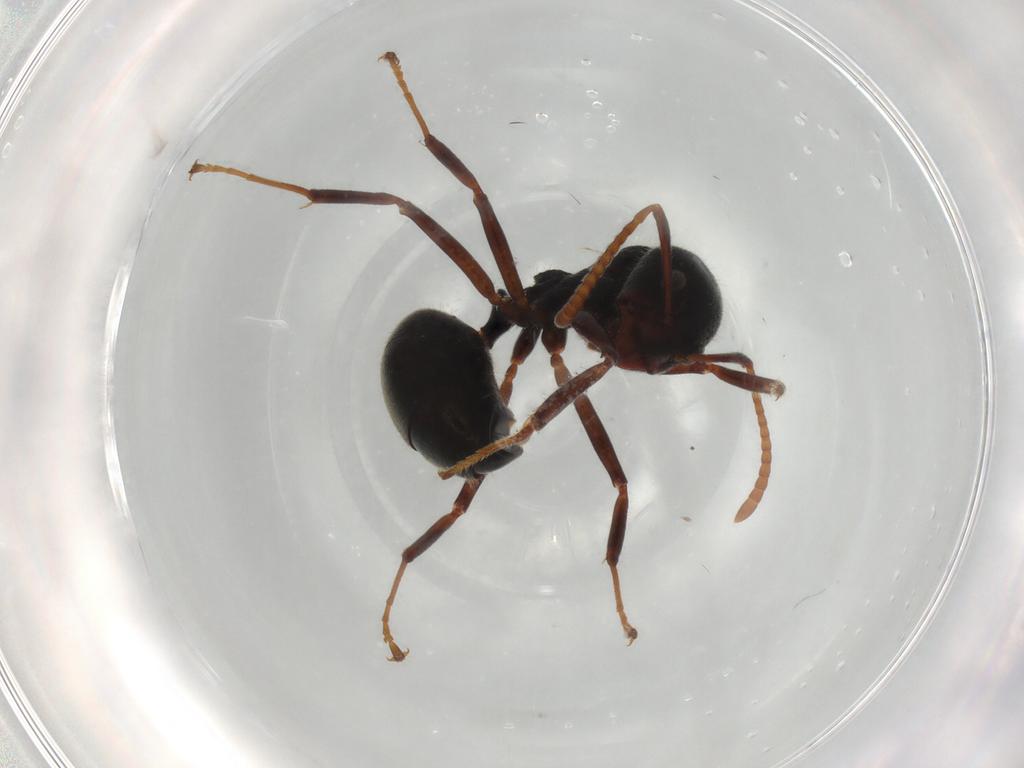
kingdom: Animalia
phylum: Arthropoda
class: Insecta
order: Hymenoptera
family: Formicidae
